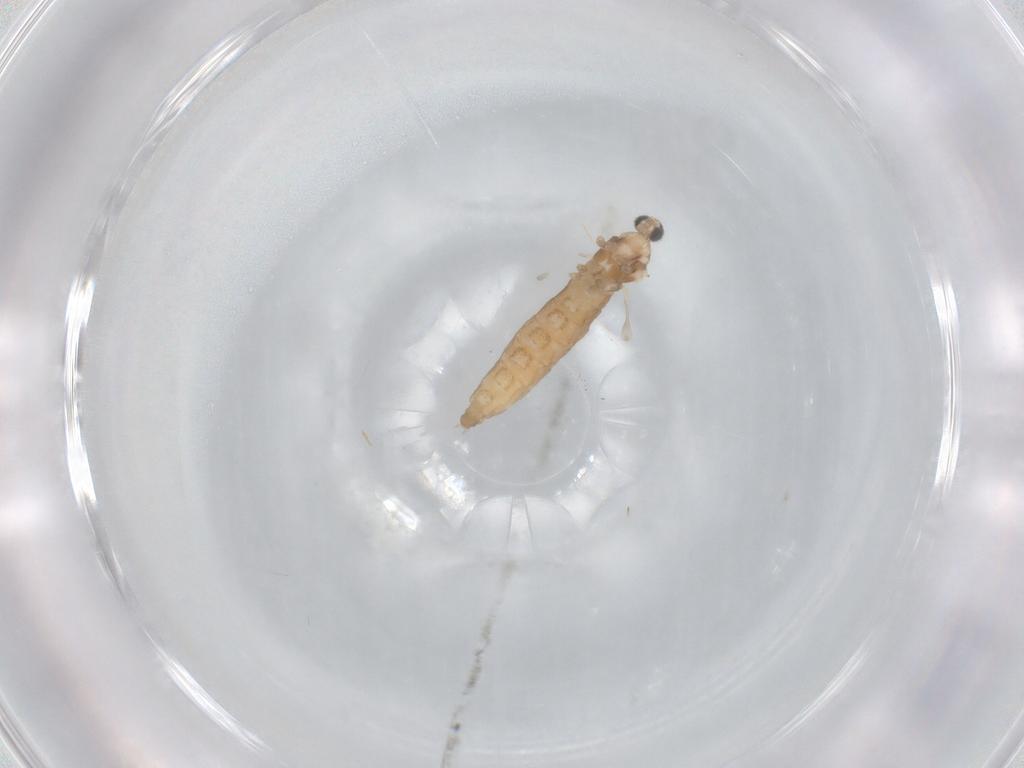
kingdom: Animalia
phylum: Arthropoda
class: Insecta
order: Diptera
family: Cecidomyiidae
